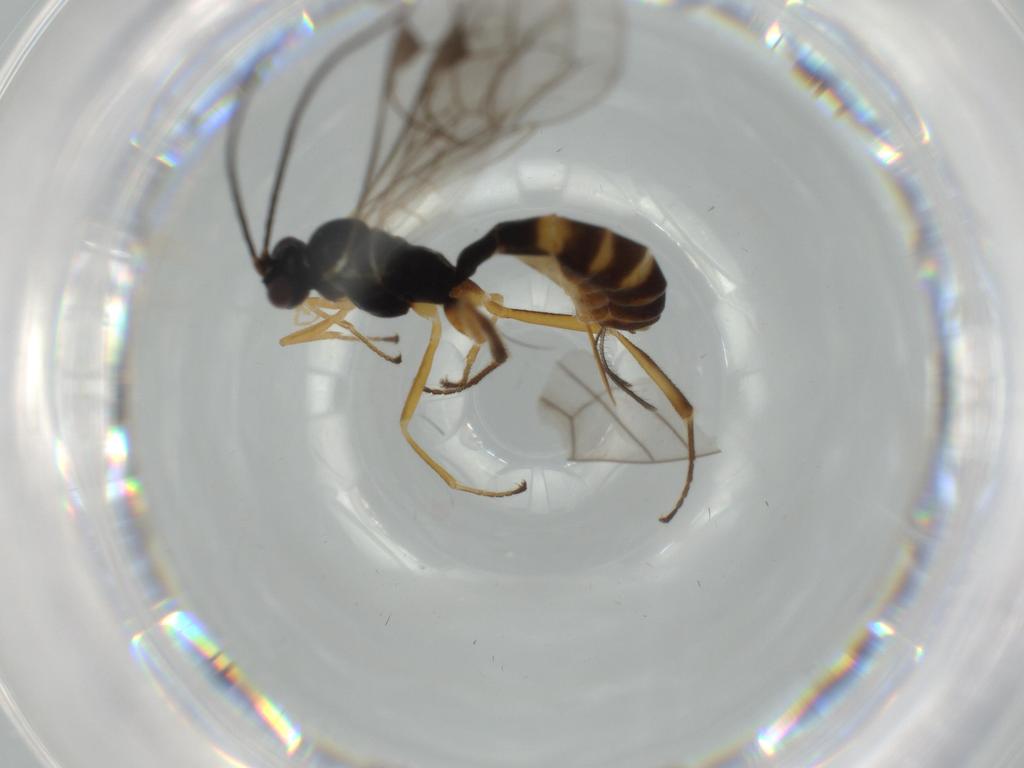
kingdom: Animalia
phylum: Arthropoda
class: Insecta
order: Hymenoptera
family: Ichneumonidae
